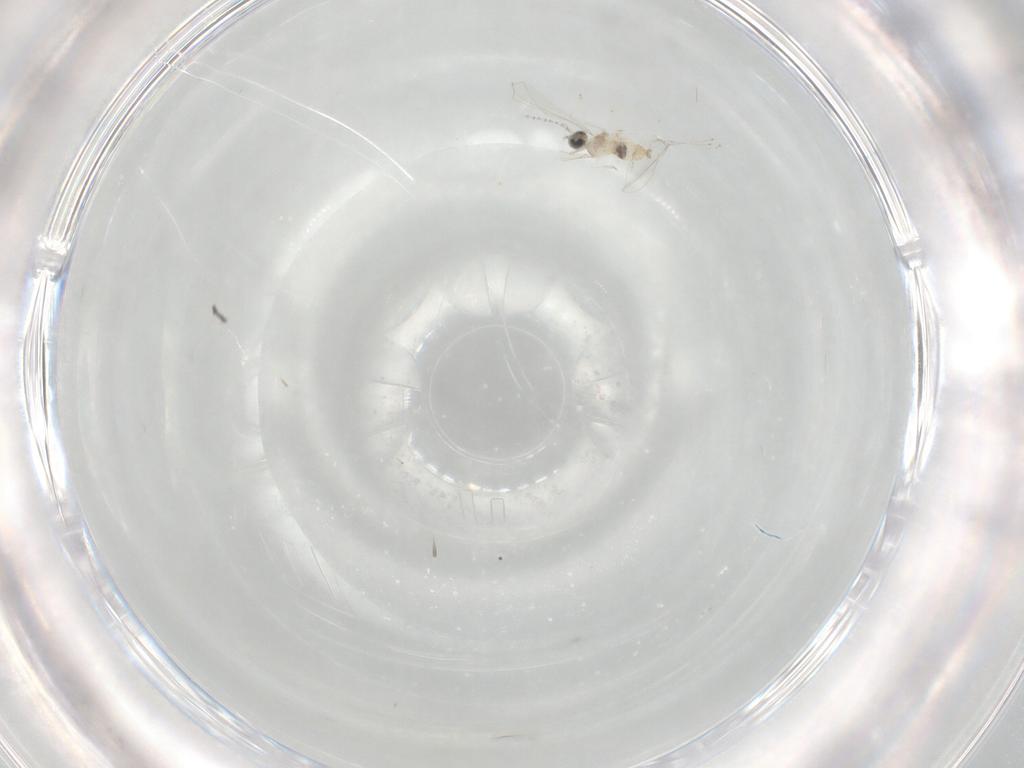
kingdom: Animalia
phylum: Arthropoda
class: Insecta
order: Diptera
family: Cecidomyiidae
